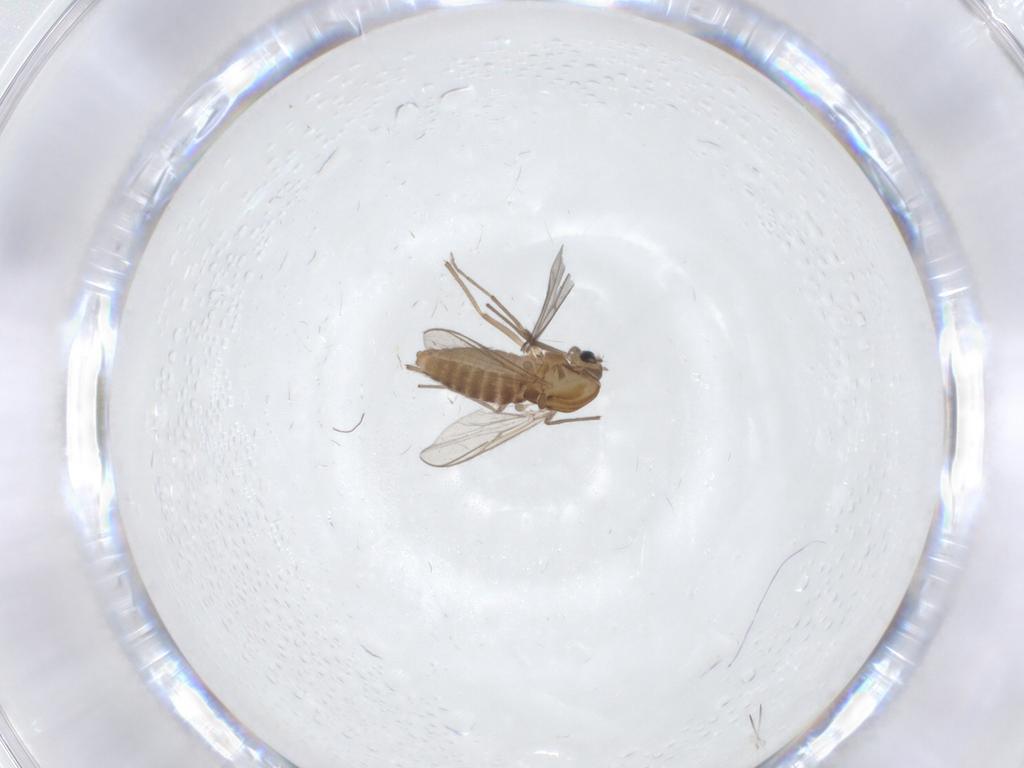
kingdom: Animalia
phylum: Arthropoda
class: Insecta
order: Diptera
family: Chironomidae
